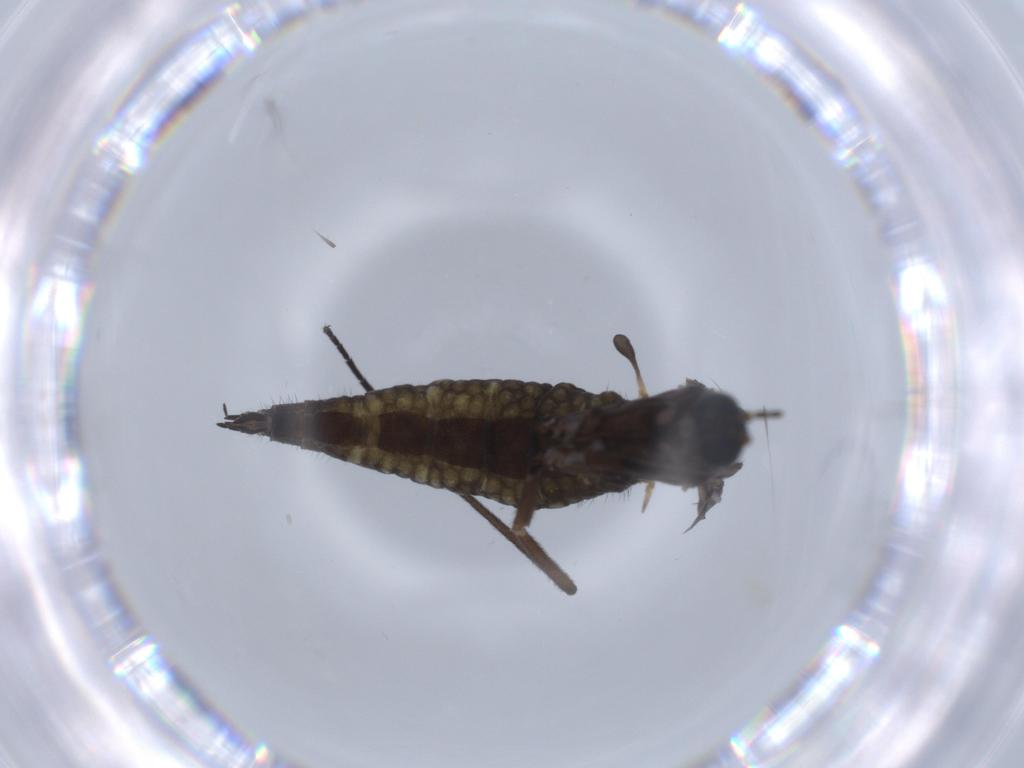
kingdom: Animalia
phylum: Arthropoda
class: Insecta
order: Diptera
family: Sciaridae
